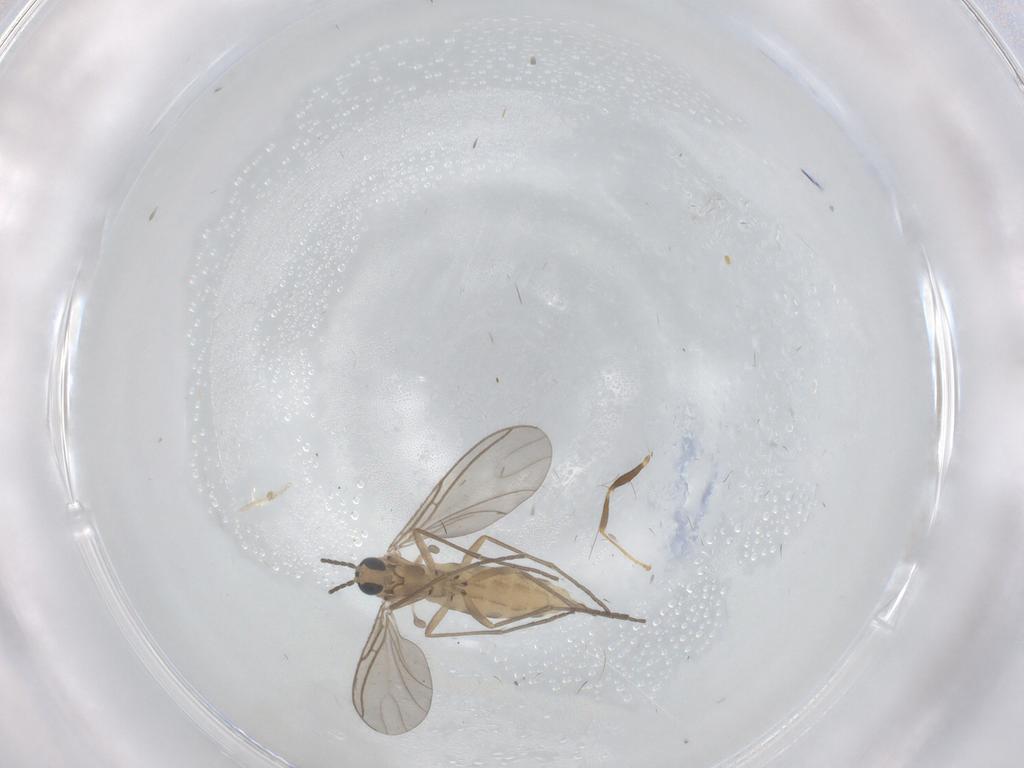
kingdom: Animalia
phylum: Arthropoda
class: Insecta
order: Diptera
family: Sciaridae
